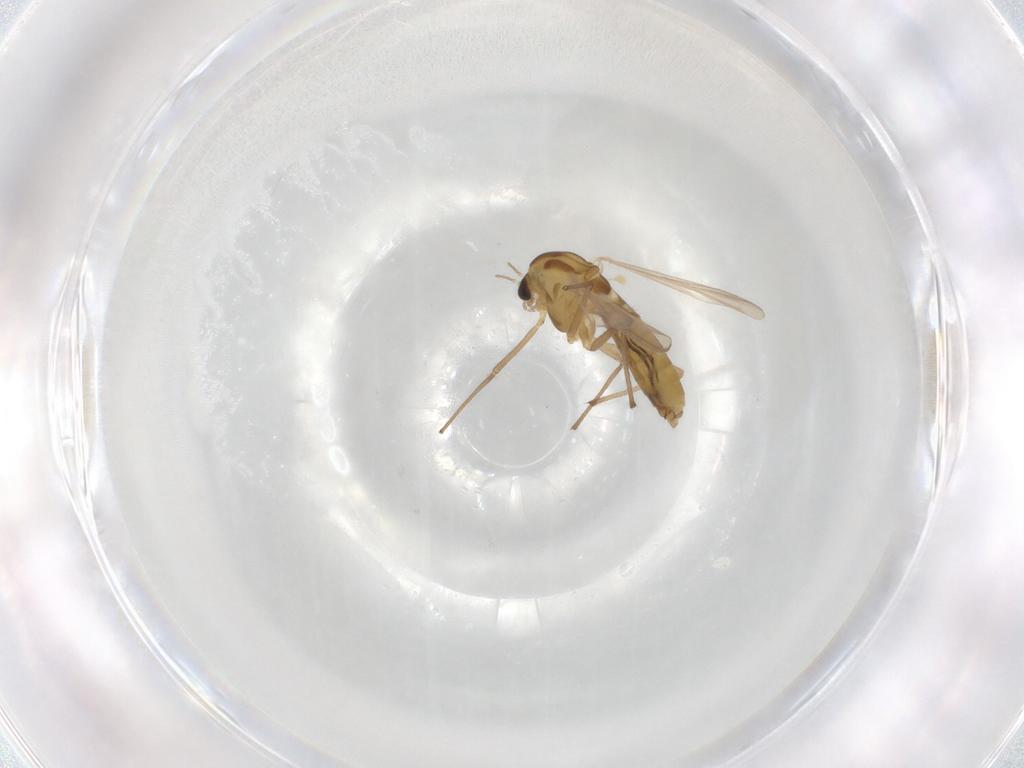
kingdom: Animalia
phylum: Arthropoda
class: Insecta
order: Diptera
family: Chironomidae
